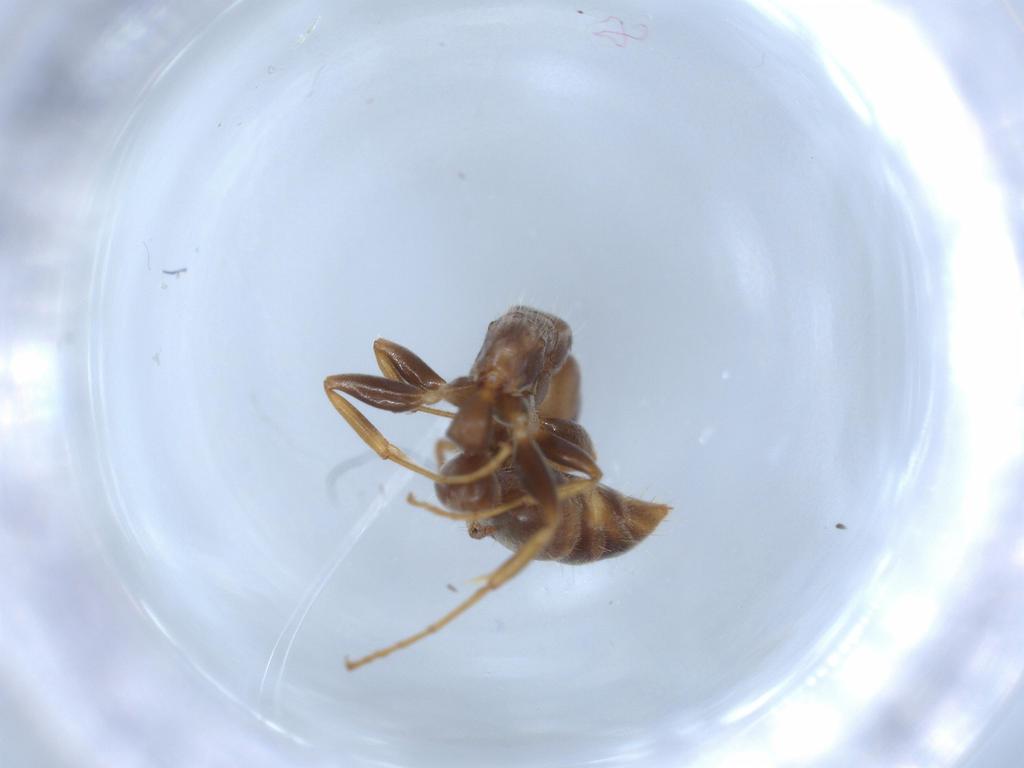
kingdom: Animalia
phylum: Arthropoda
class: Insecta
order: Hymenoptera
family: Formicidae
